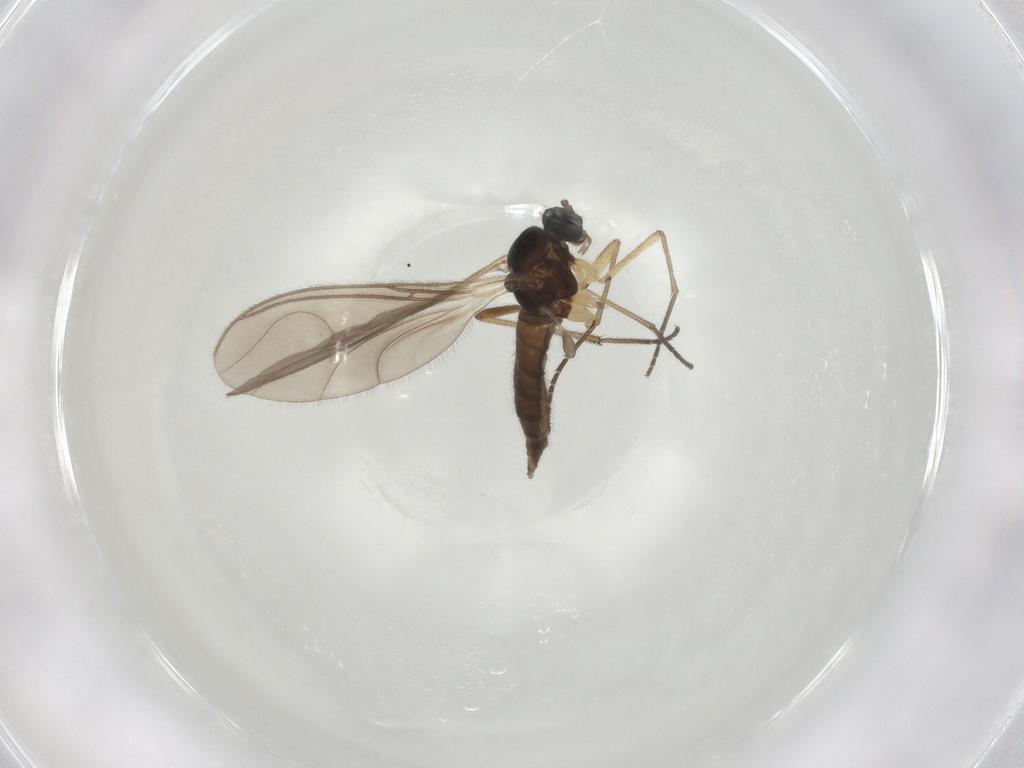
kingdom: Animalia
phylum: Arthropoda
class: Insecta
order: Diptera
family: Sciaridae
